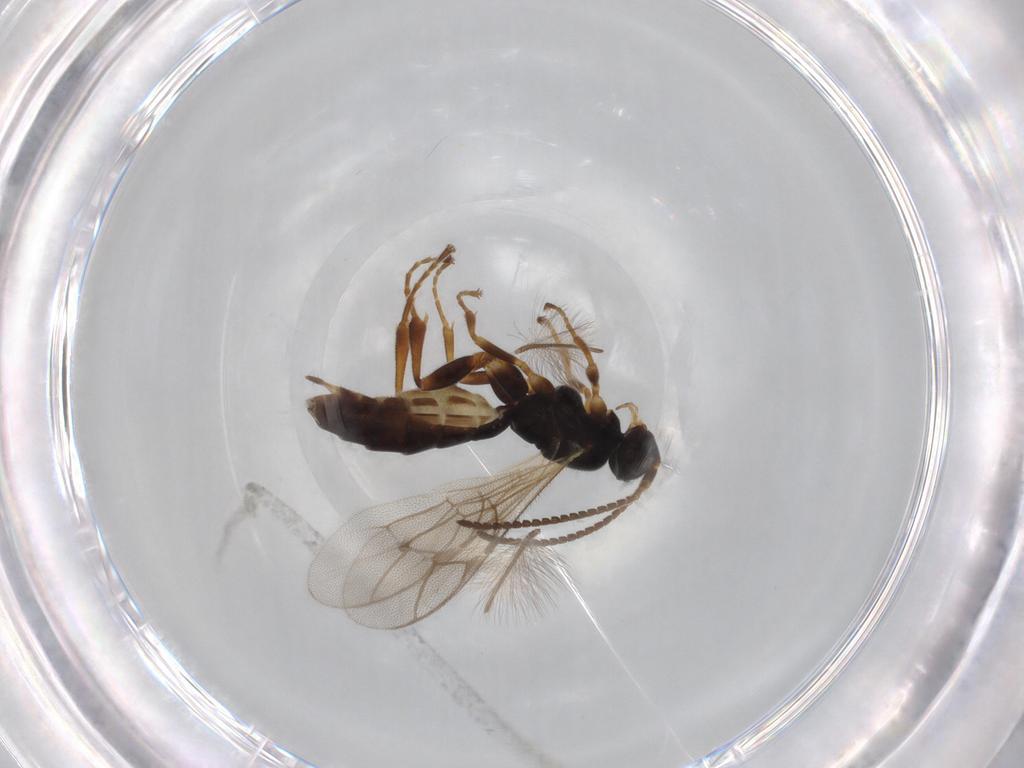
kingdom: Animalia
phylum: Arthropoda
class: Insecta
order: Hymenoptera
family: Ichneumonidae
